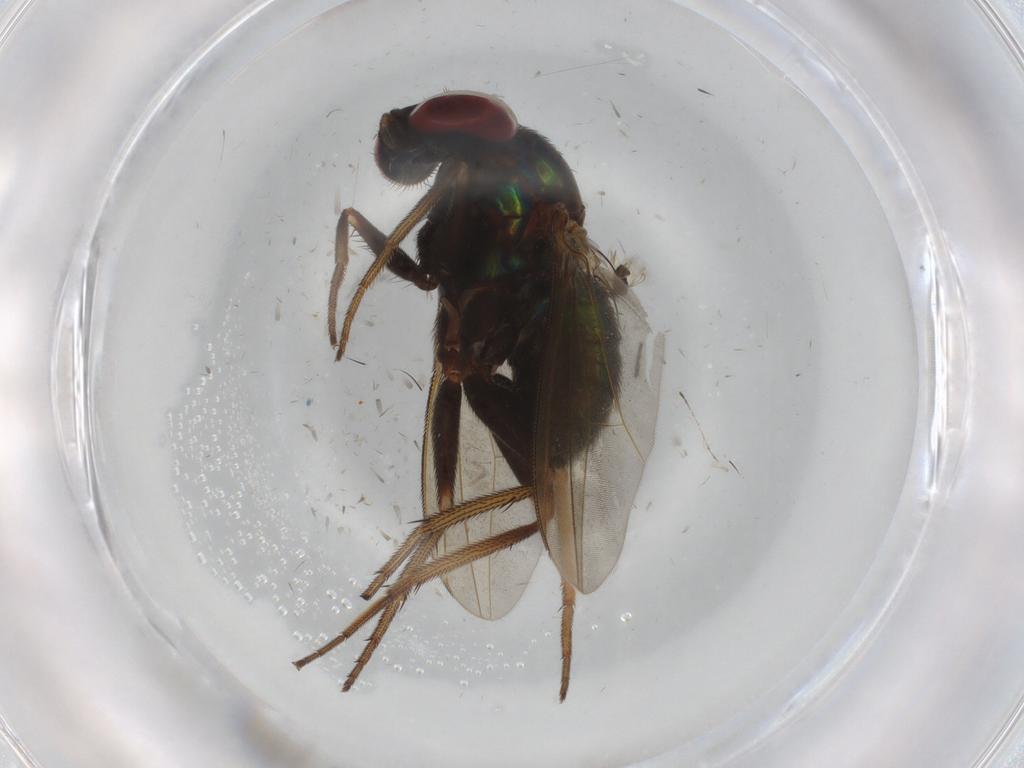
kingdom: Animalia
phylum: Arthropoda
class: Insecta
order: Diptera
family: Dolichopodidae
